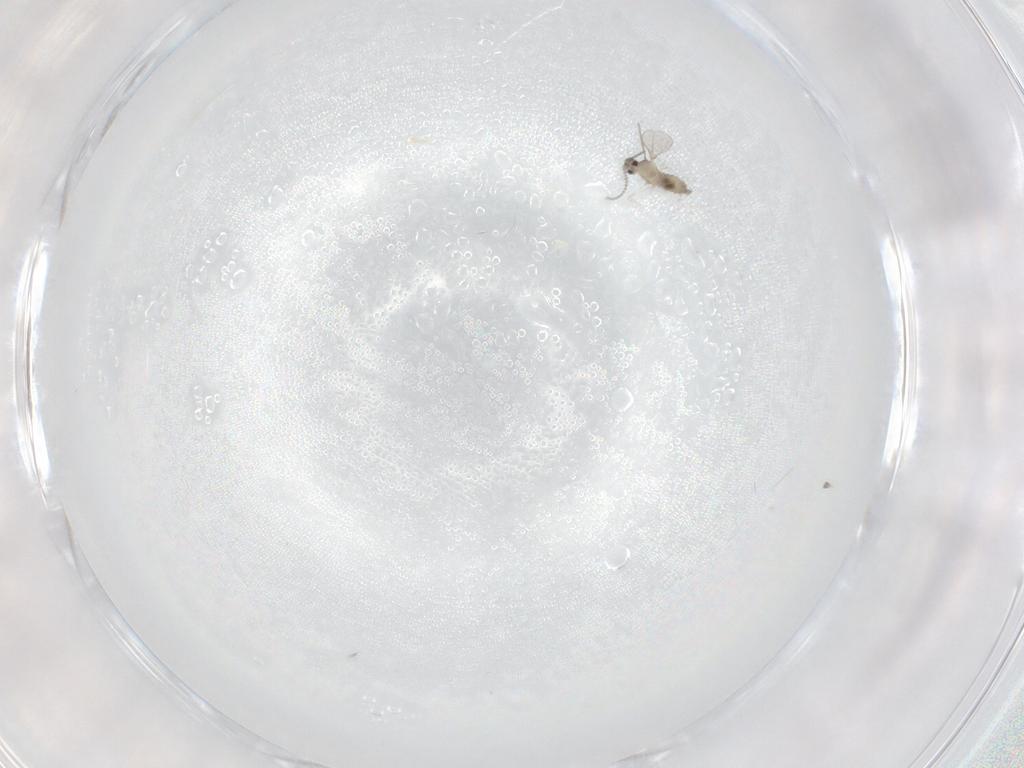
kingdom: Animalia
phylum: Arthropoda
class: Insecta
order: Diptera
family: Cecidomyiidae
